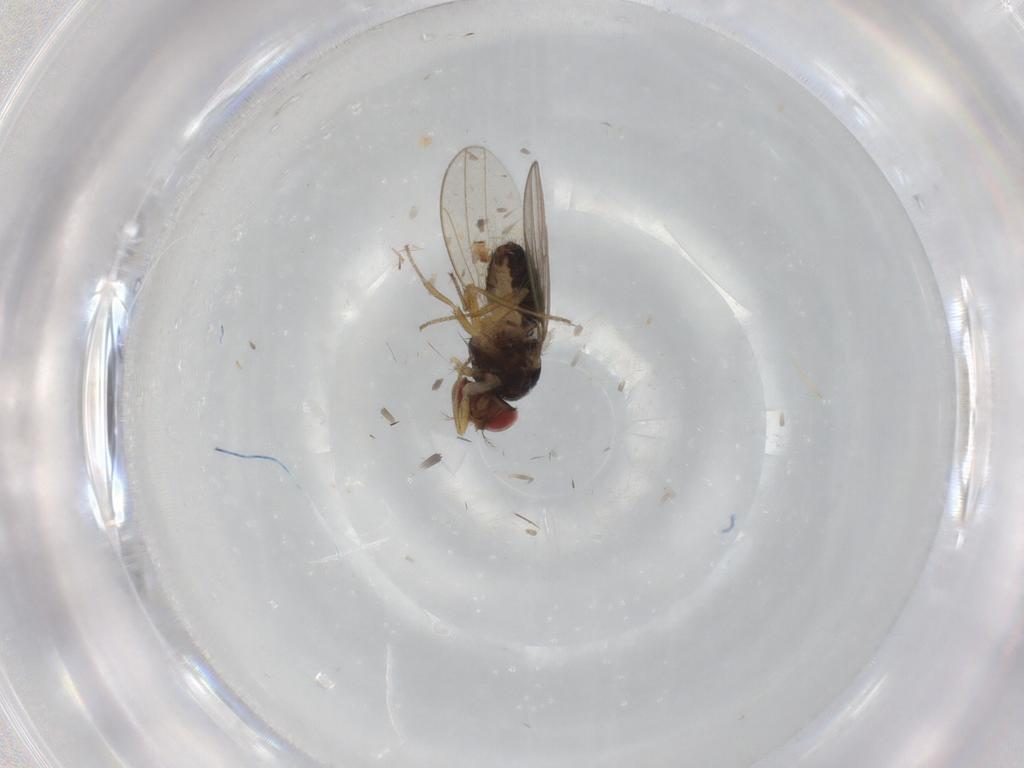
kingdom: Animalia
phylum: Arthropoda
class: Insecta
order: Diptera
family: Drosophilidae
